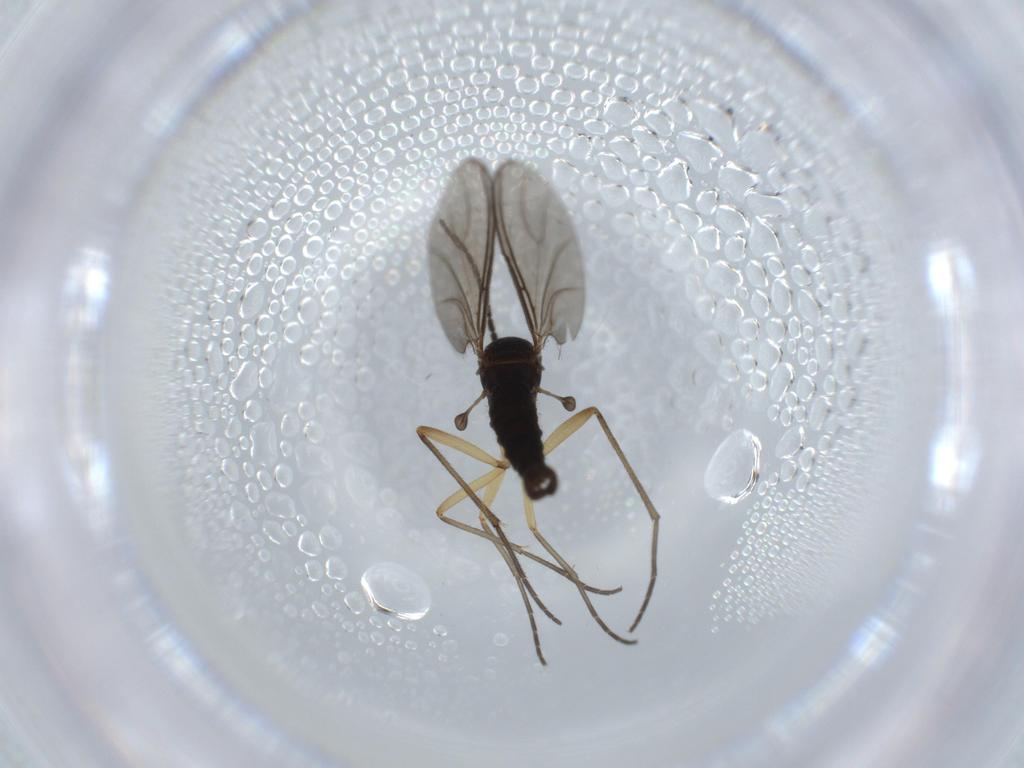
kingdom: Animalia
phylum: Arthropoda
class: Insecta
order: Diptera
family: Sciaridae
